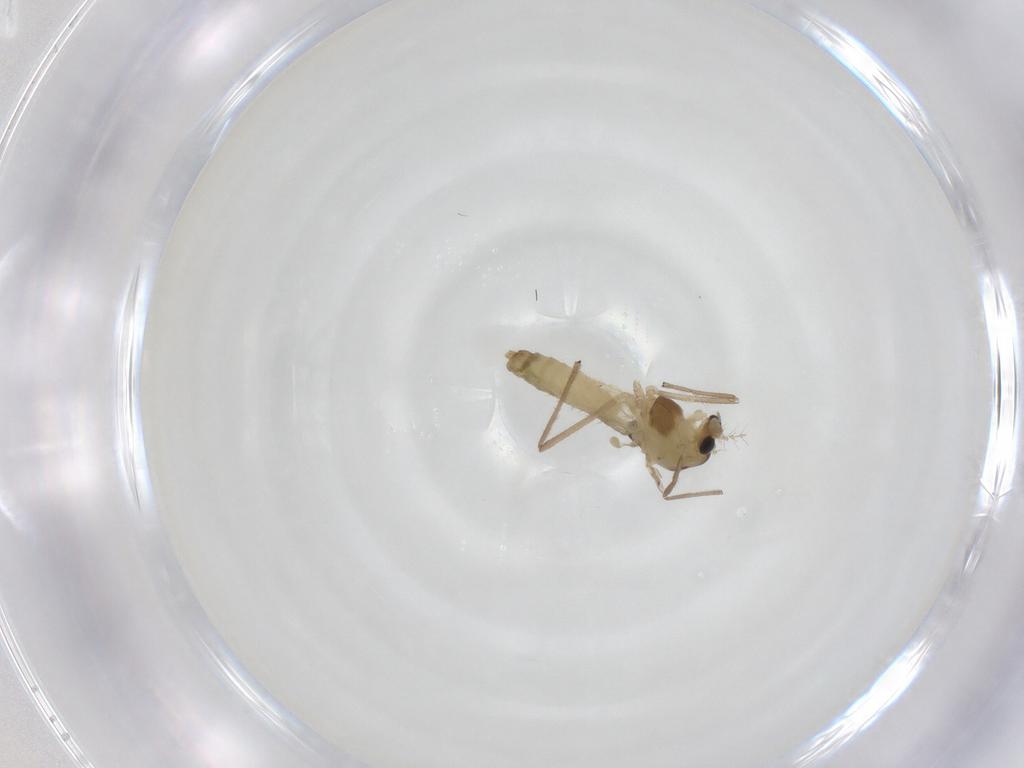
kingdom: Animalia
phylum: Arthropoda
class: Insecta
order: Diptera
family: Chironomidae
